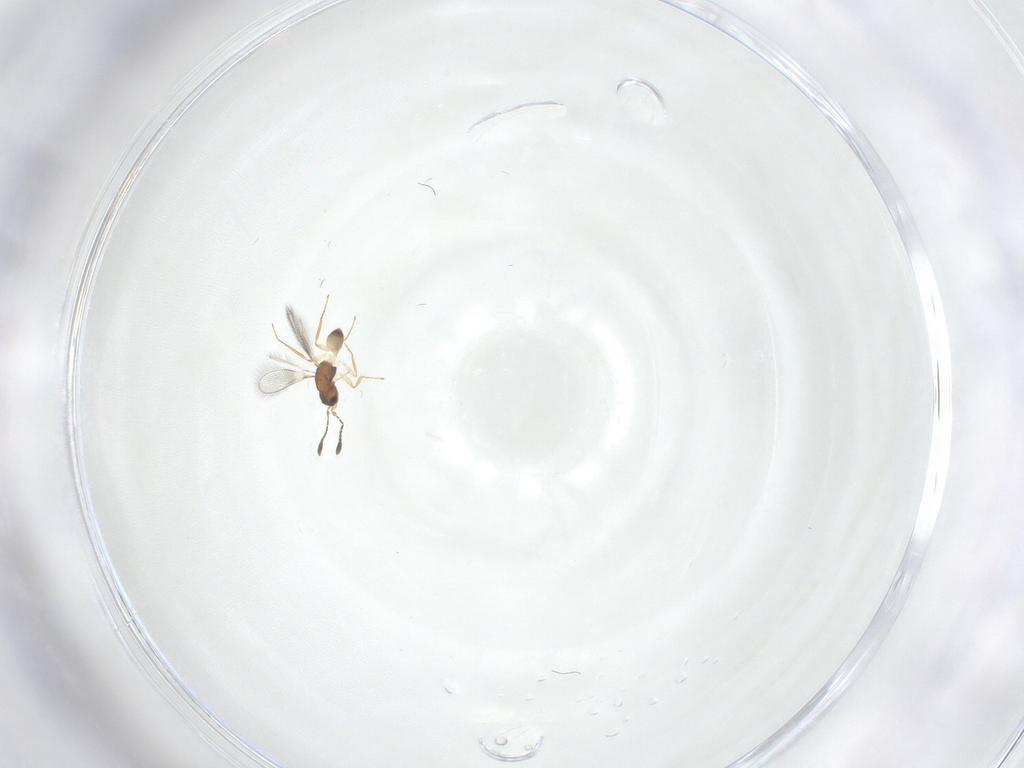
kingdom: Animalia
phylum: Arthropoda
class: Insecta
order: Hymenoptera
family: Mymaridae
